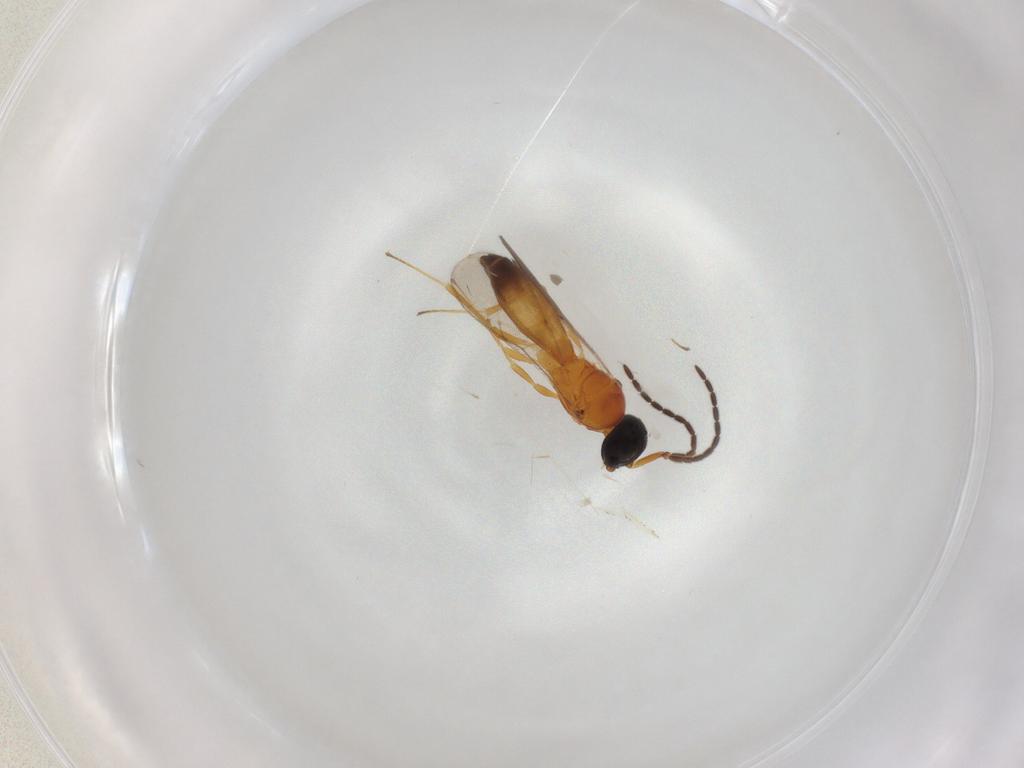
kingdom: Animalia
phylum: Arthropoda
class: Insecta
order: Hymenoptera
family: Scelionidae
